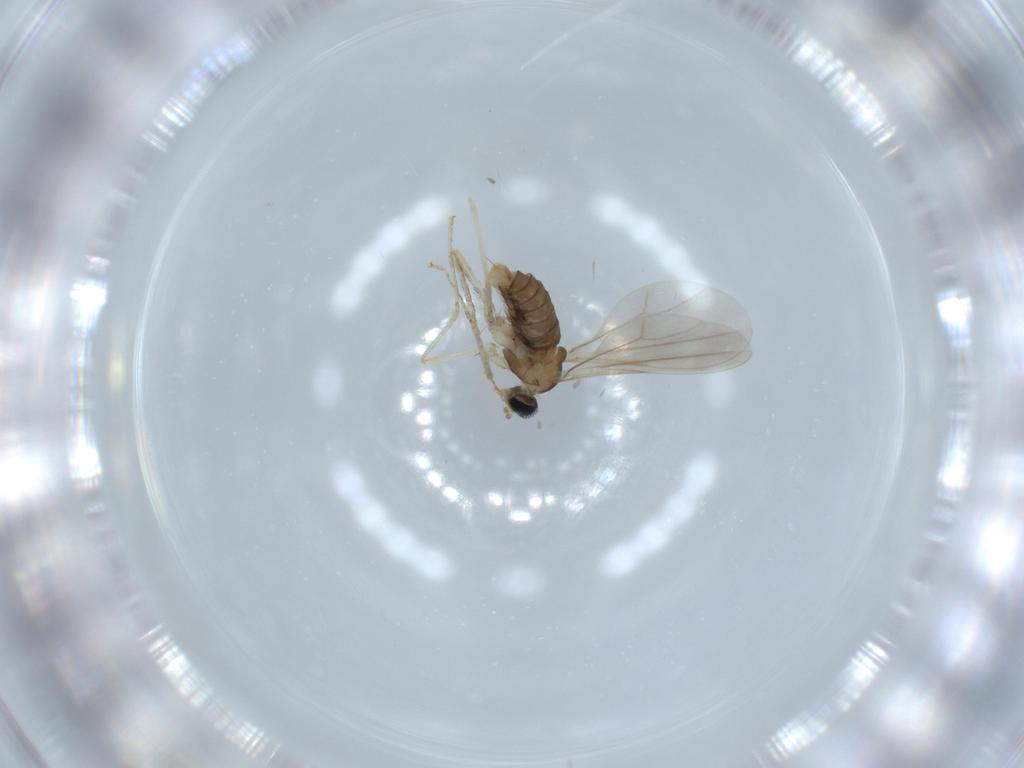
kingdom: Animalia
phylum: Arthropoda
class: Insecta
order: Diptera
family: Cecidomyiidae
